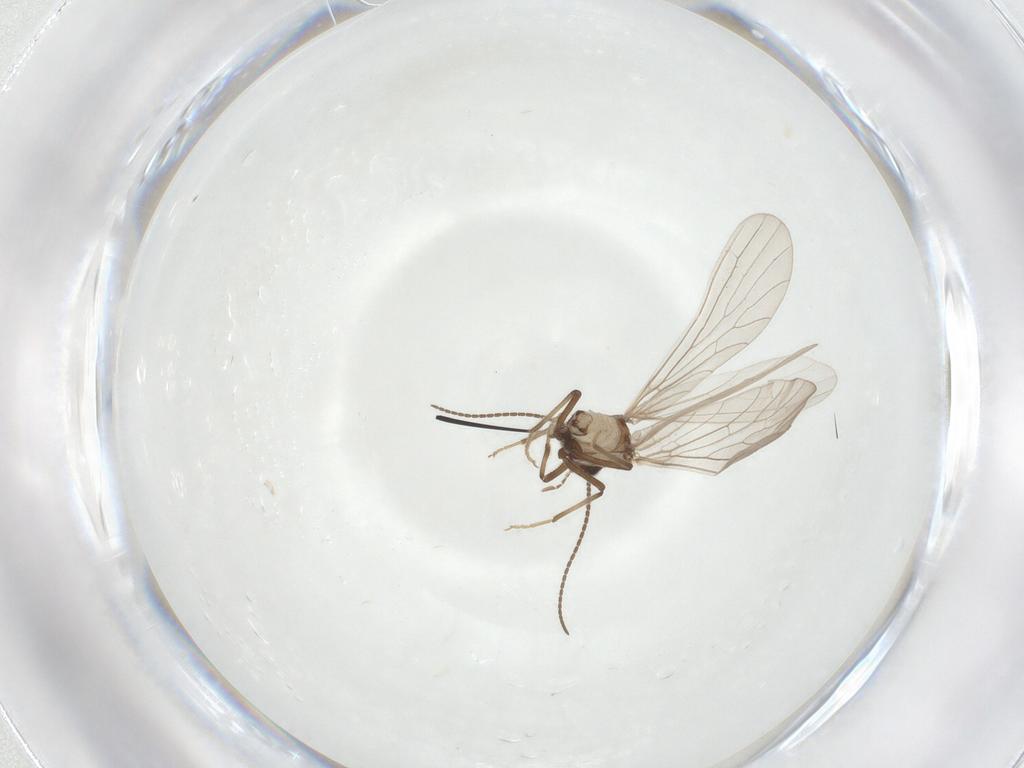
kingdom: Animalia
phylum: Arthropoda
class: Insecta
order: Neuroptera
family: Coniopterygidae
